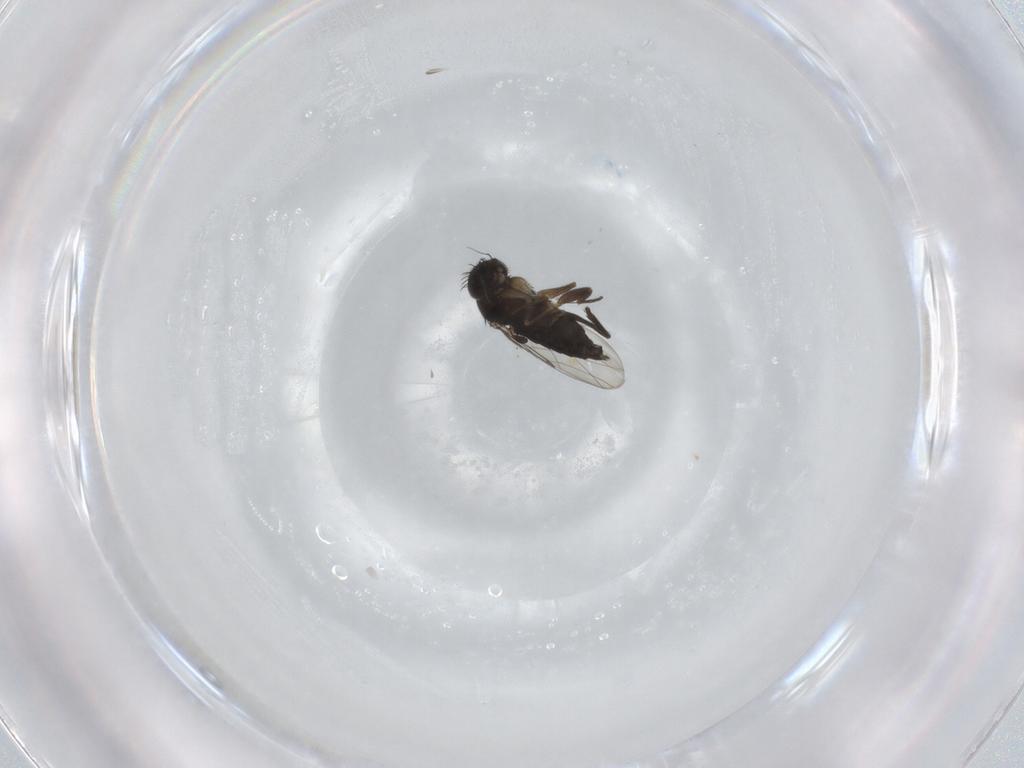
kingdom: Animalia
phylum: Arthropoda
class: Insecta
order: Diptera
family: Phoridae
